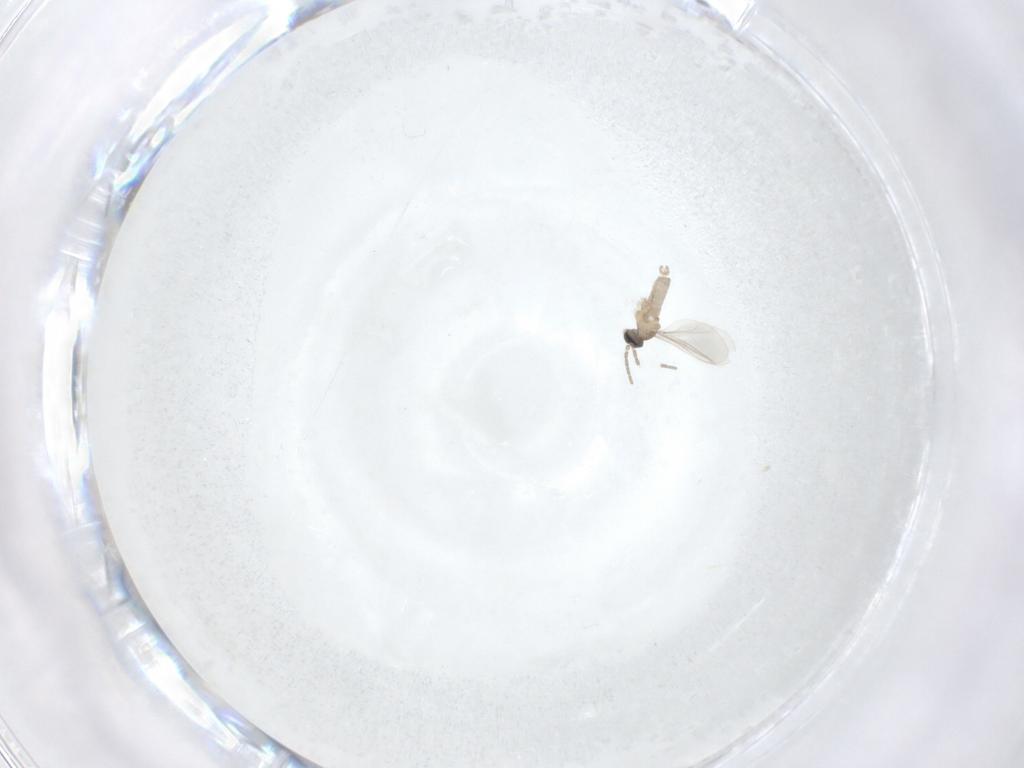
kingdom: Animalia
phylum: Arthropoda
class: Insecta
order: Diptera
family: Cecidomyiidae
